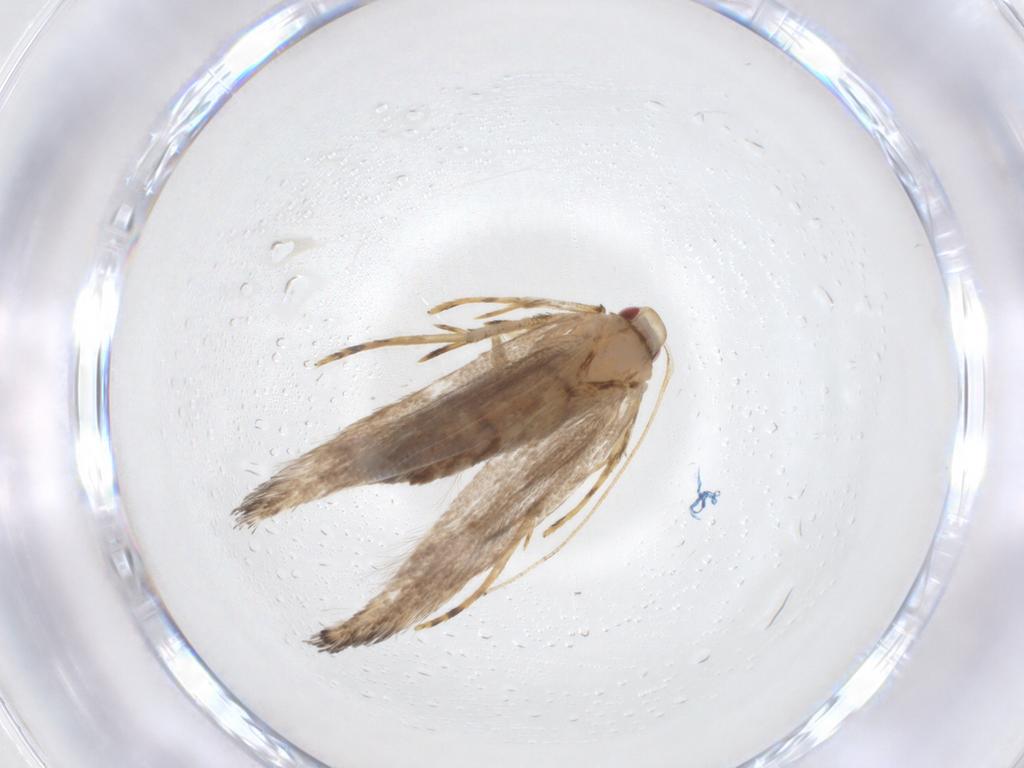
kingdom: Animalia
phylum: Arthropoda
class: Insecta
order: Lepidoptera
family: Cosmopterigidae
